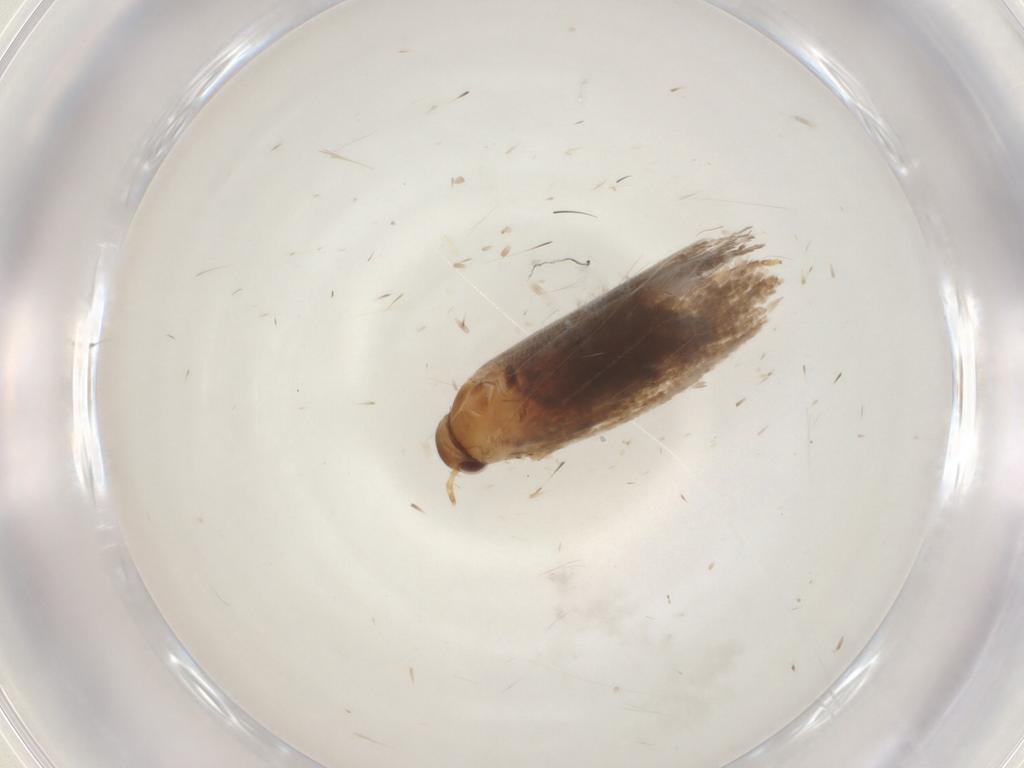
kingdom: Animalia
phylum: Arthropoda
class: Insecta
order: Lepidoptera
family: Oecophoridae
